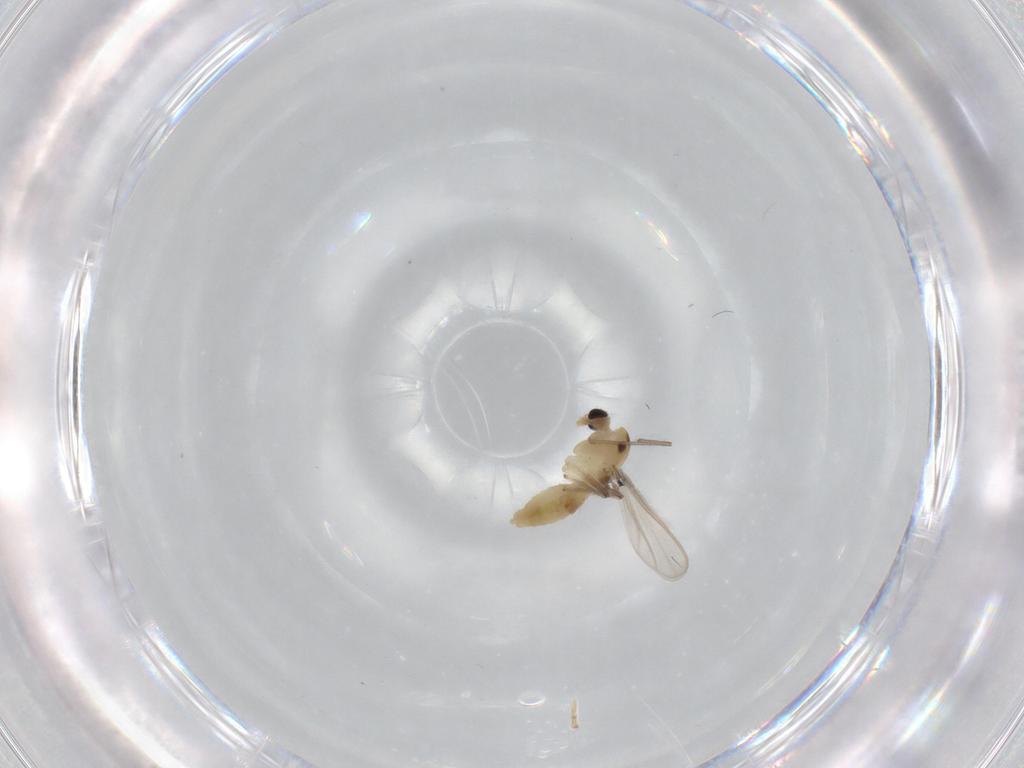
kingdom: Animalia
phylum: Arthropoda
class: Insecta
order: Diptera
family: Chironomidae
